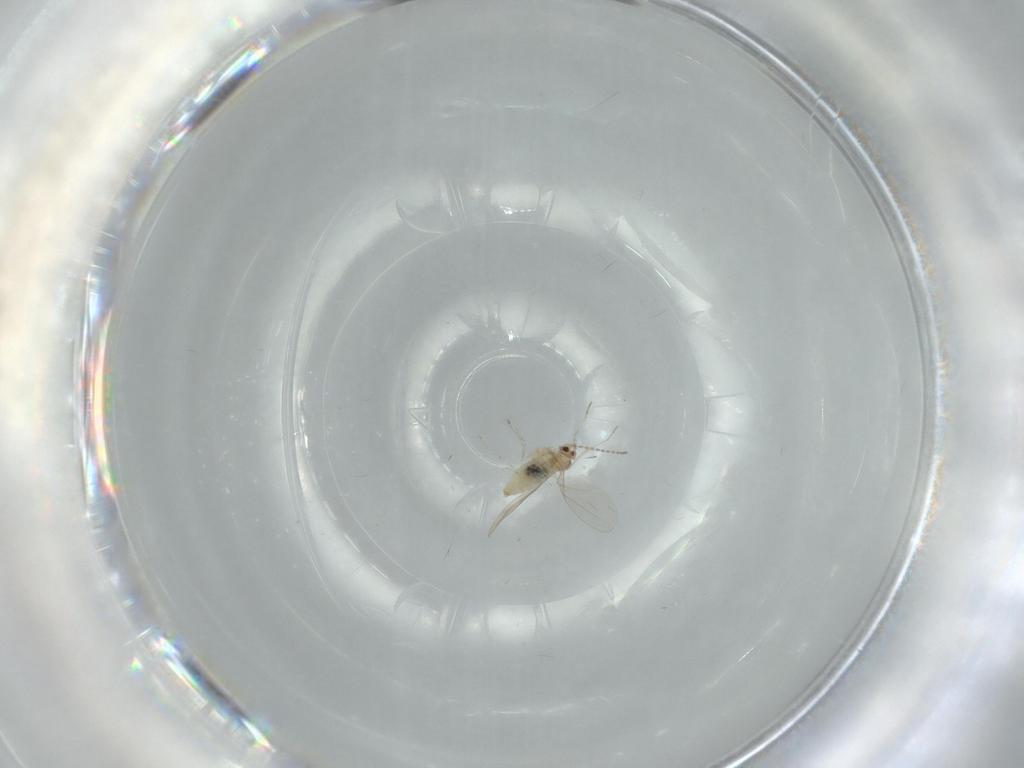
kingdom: Animalia
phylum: Arthropoda
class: Insecta
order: Diptera
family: Cecidomyiidae
